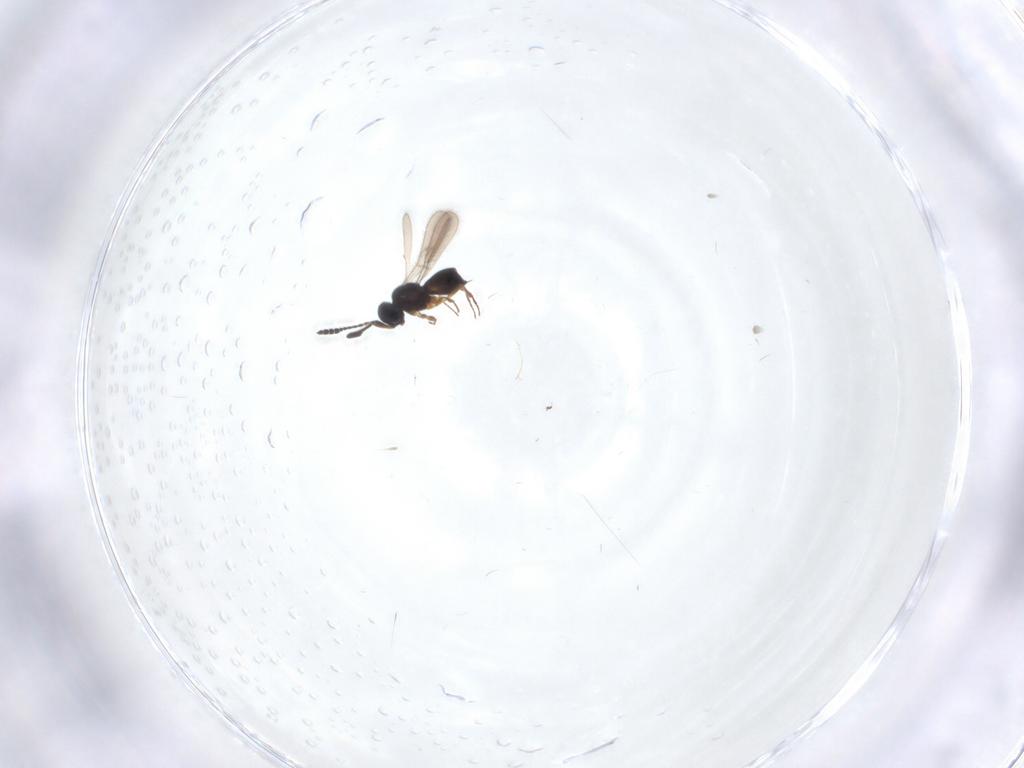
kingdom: Animalia
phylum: Arthropoda
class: Insecta
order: Hymenoptera
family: Scelionidae
